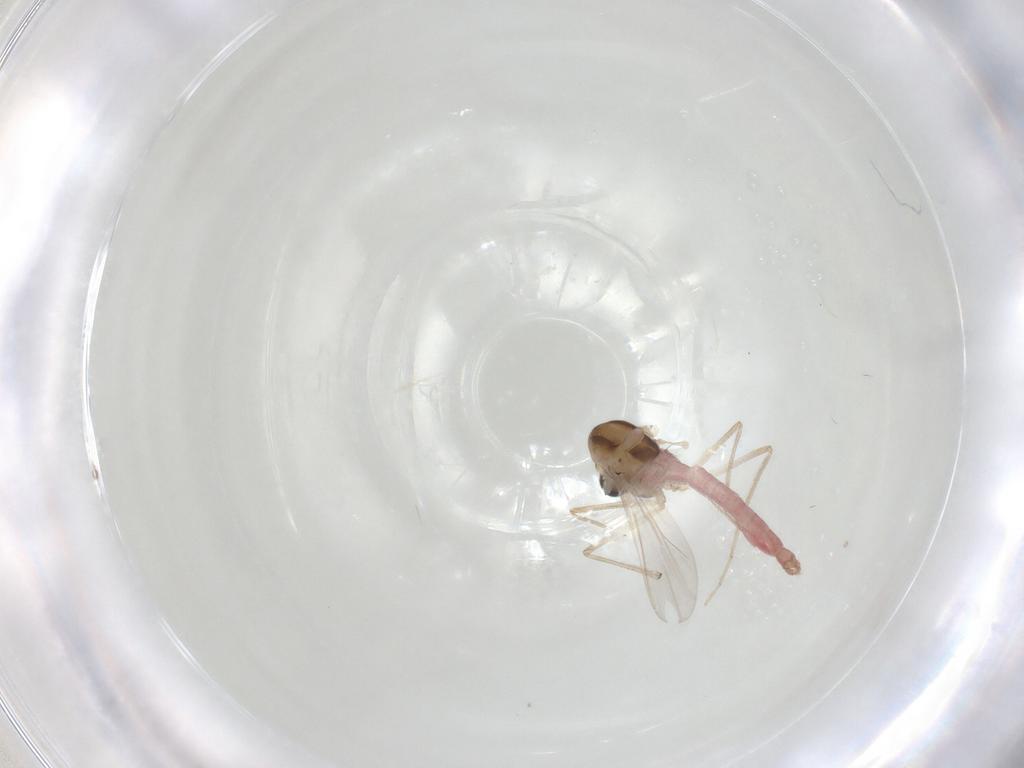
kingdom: Animalia
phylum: Arthropoda
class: Insecta
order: Diptera
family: Chironomidae
